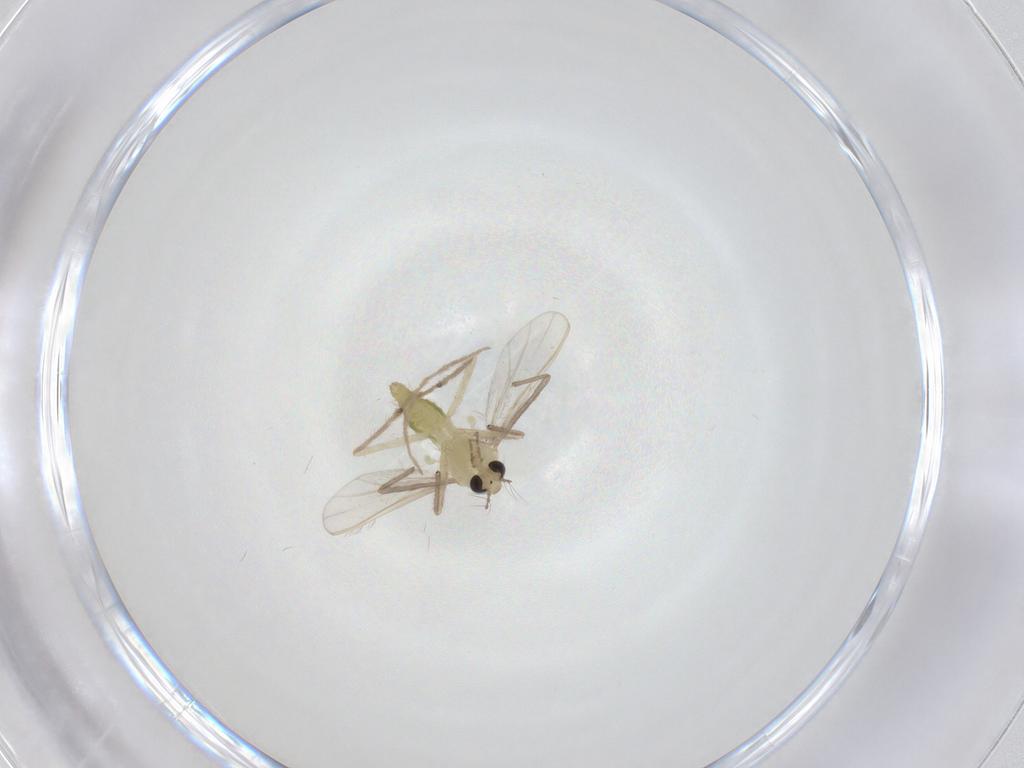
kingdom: Animalia
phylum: Arthropoda
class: Insecta
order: Diptera
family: Chironomidae
